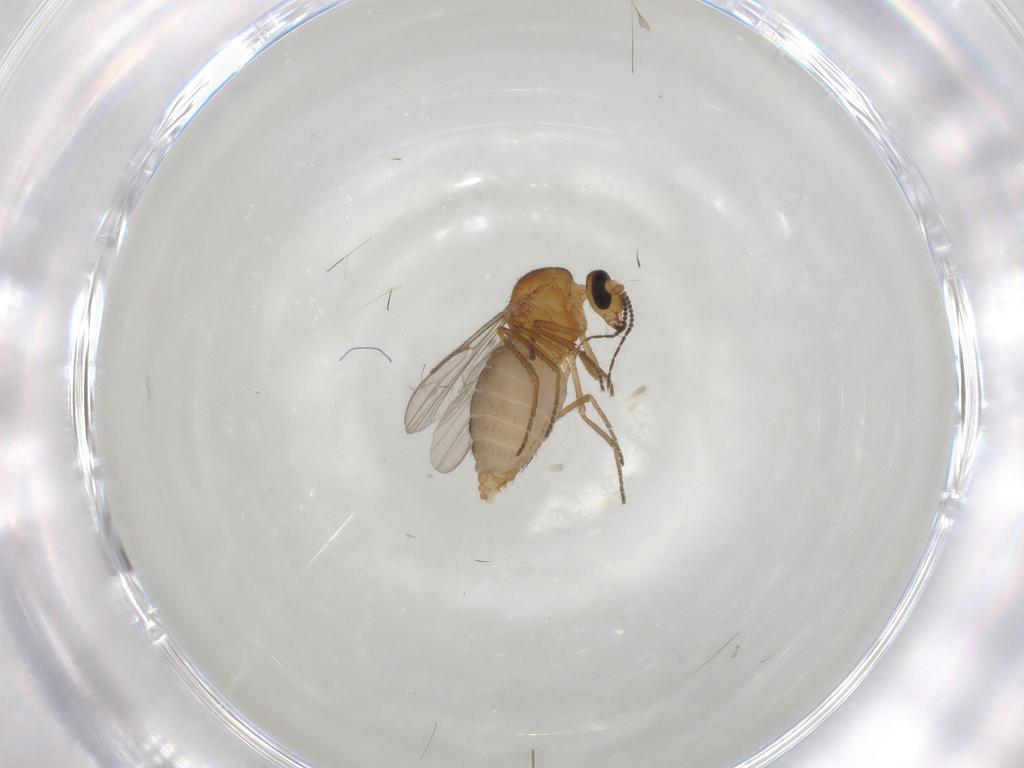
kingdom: Animalia
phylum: Arthropoda
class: Insecta
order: Diptera
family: Ceratopogonidae
